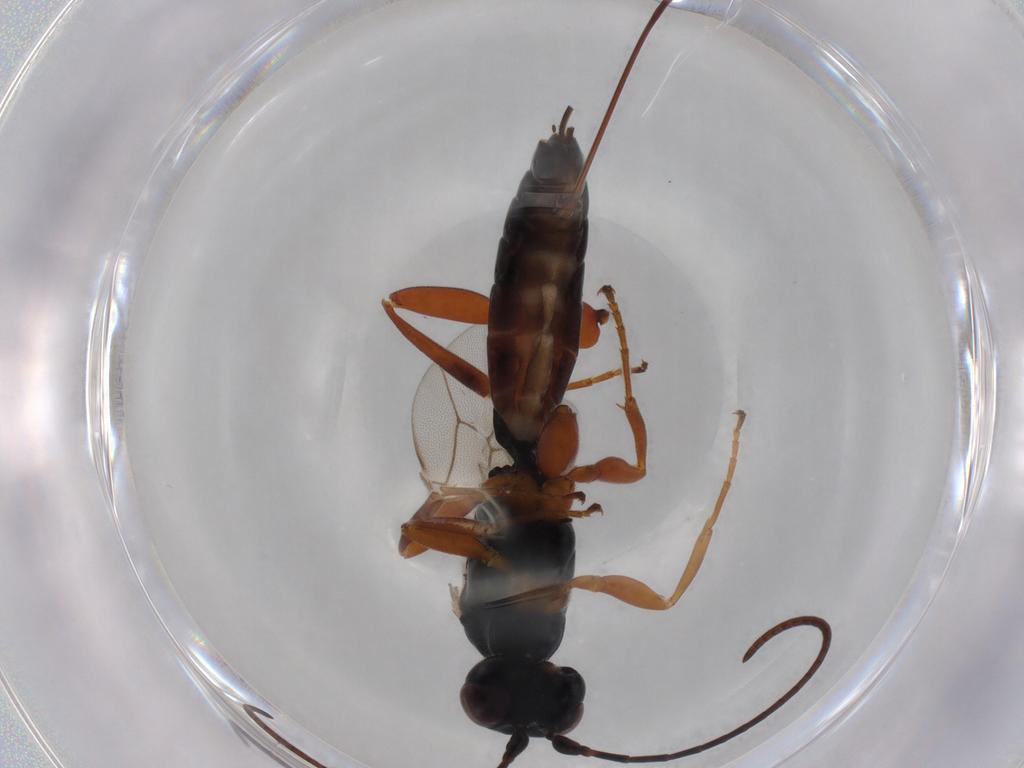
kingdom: Animalia
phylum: Arthropoda
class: Insecta
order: Hymenoptera
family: Ichneumonidae
